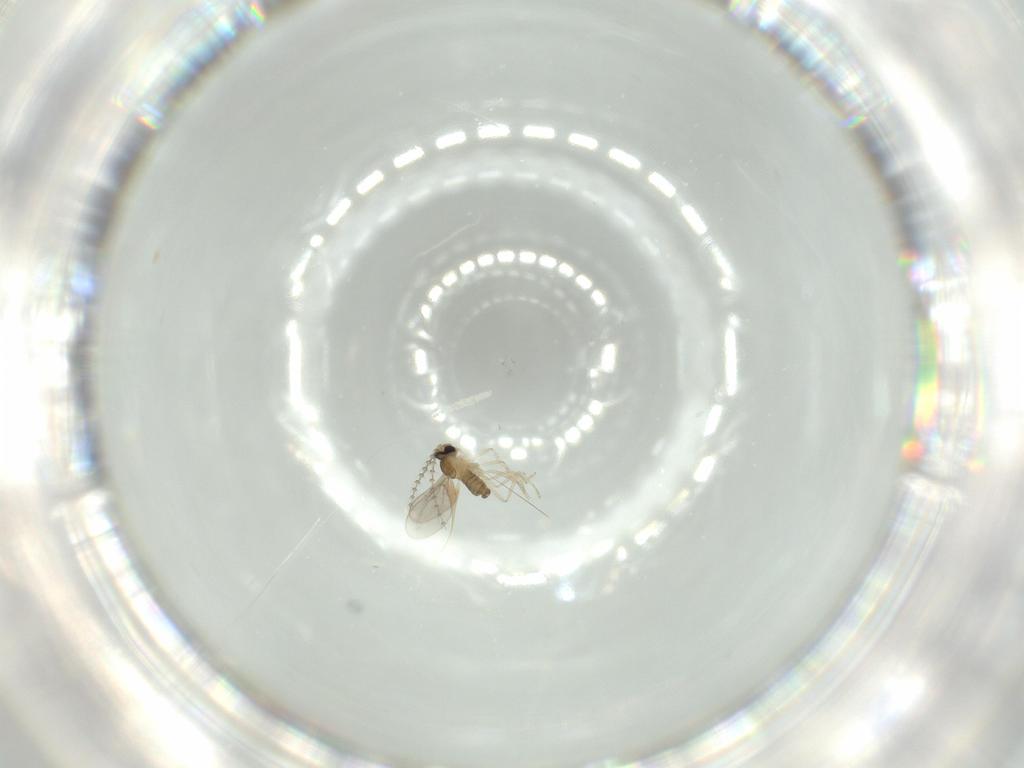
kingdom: Animalia
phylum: Arthropoda
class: Insecta
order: Diptera
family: Cecidomyiidae
